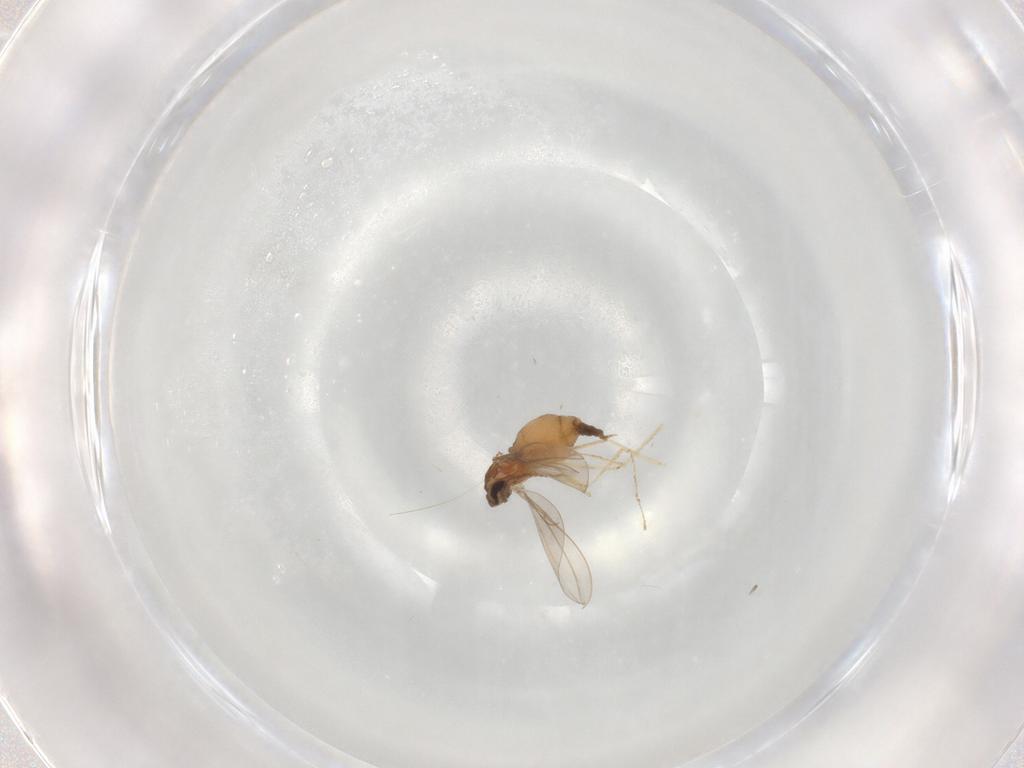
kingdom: Animalia
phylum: Arthropoda
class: Insecta
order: Diptera
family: Cecidomyiidae
